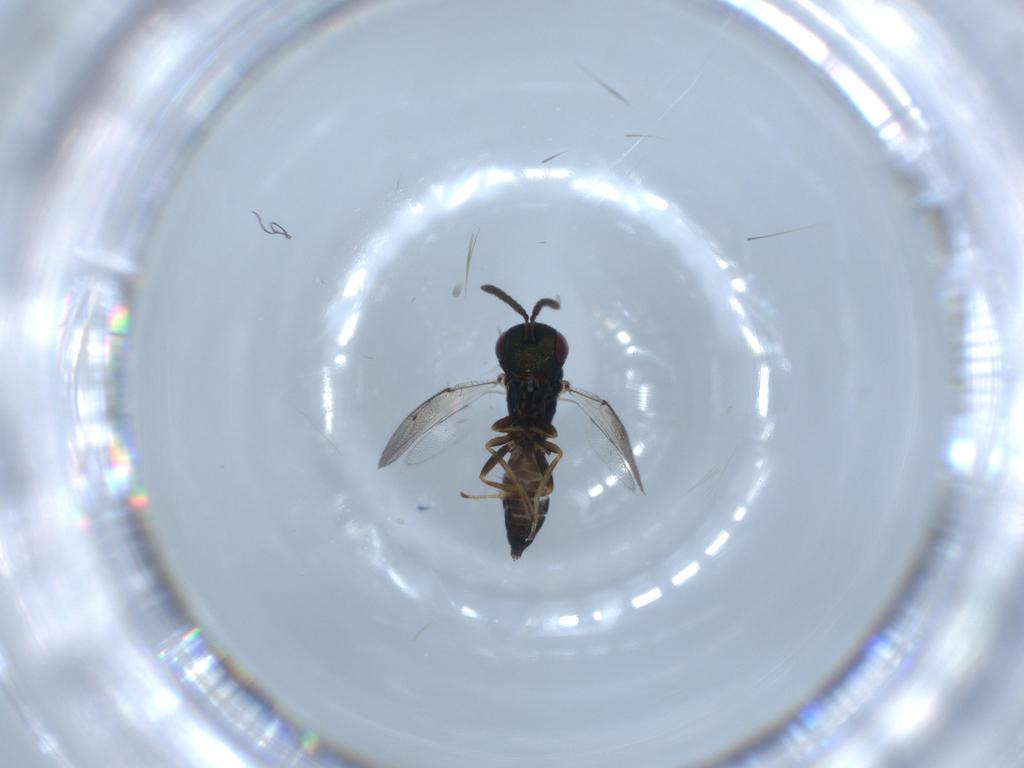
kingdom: Animalia
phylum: Arthropoda
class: Insecta
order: Hymenoptera
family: Pteromalidae
